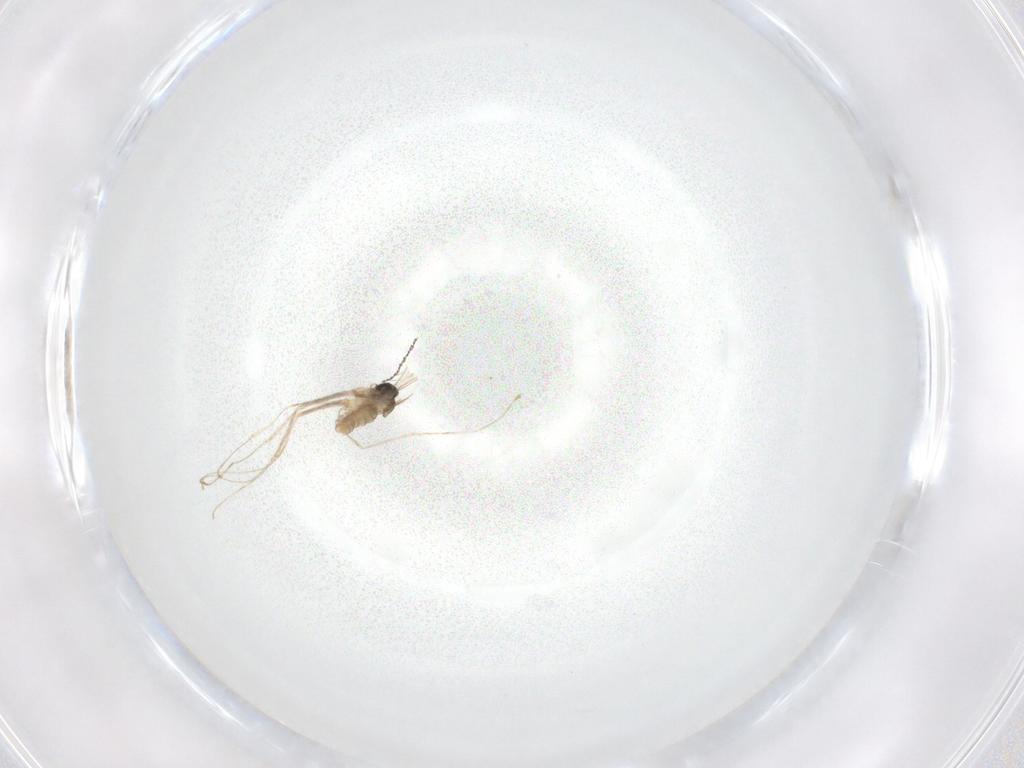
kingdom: Animalia
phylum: Arthropoda
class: Insecta
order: Diptera
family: Cecidomyiidae
